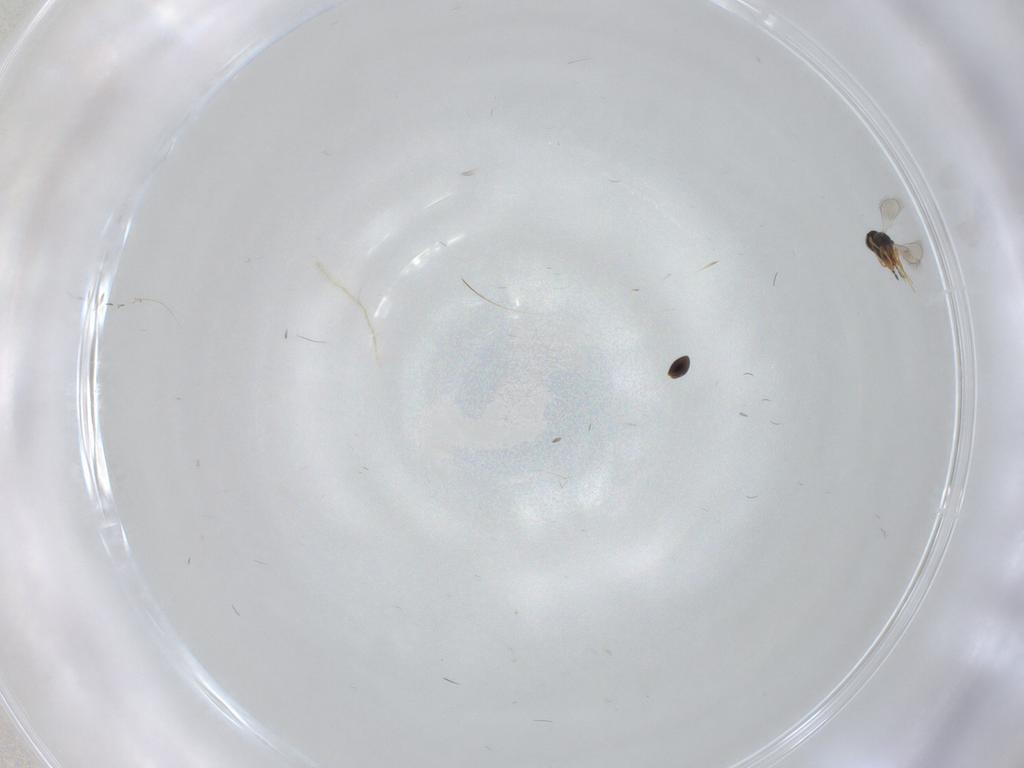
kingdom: Animalia
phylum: Arthropoda
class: Insecta
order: Hymenoptera
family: Platygastridae
